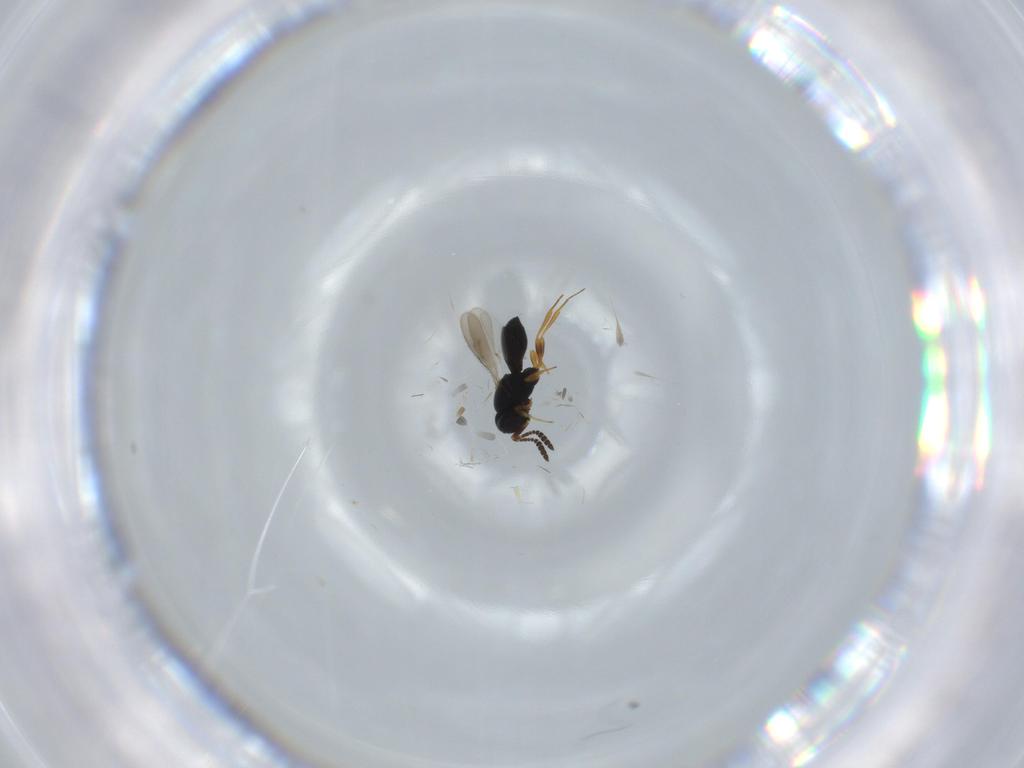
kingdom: Animalia
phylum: Arthropoda
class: Insecta
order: Hymenoptera
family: Scelionidae
